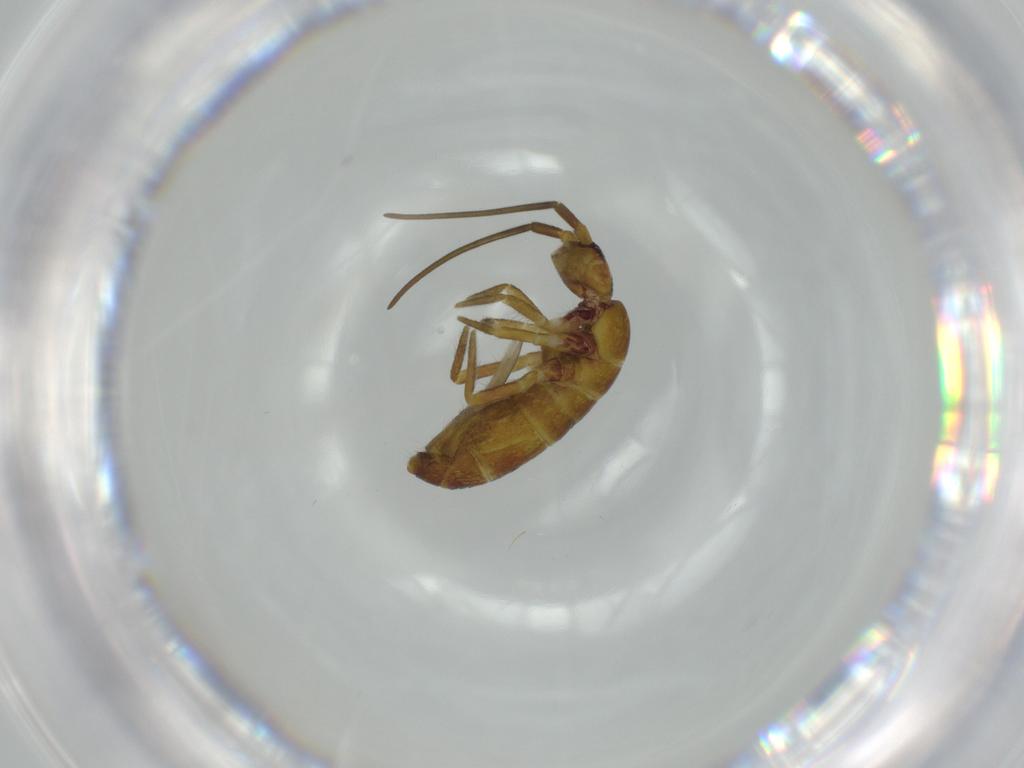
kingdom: Animalia
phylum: Arthropoda
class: Collembola
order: Entomobryomorpha
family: Tomoceridae
